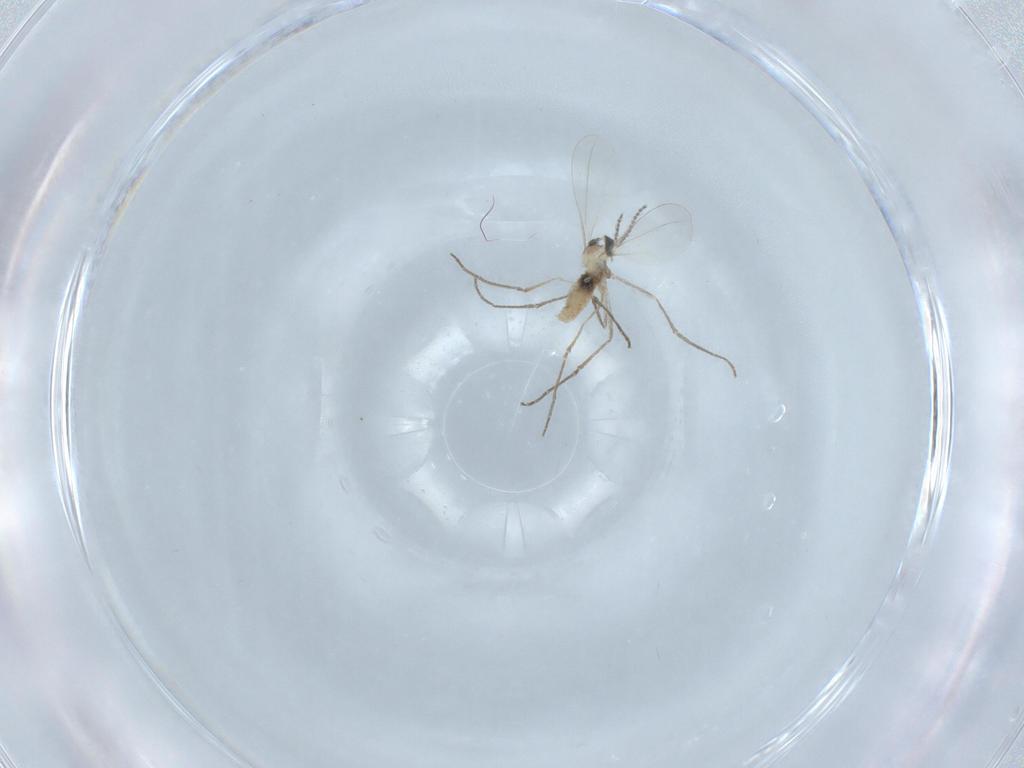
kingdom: Animalia
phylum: Arthropoda
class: Insecta
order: Diptera
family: Cecidomyiidae
